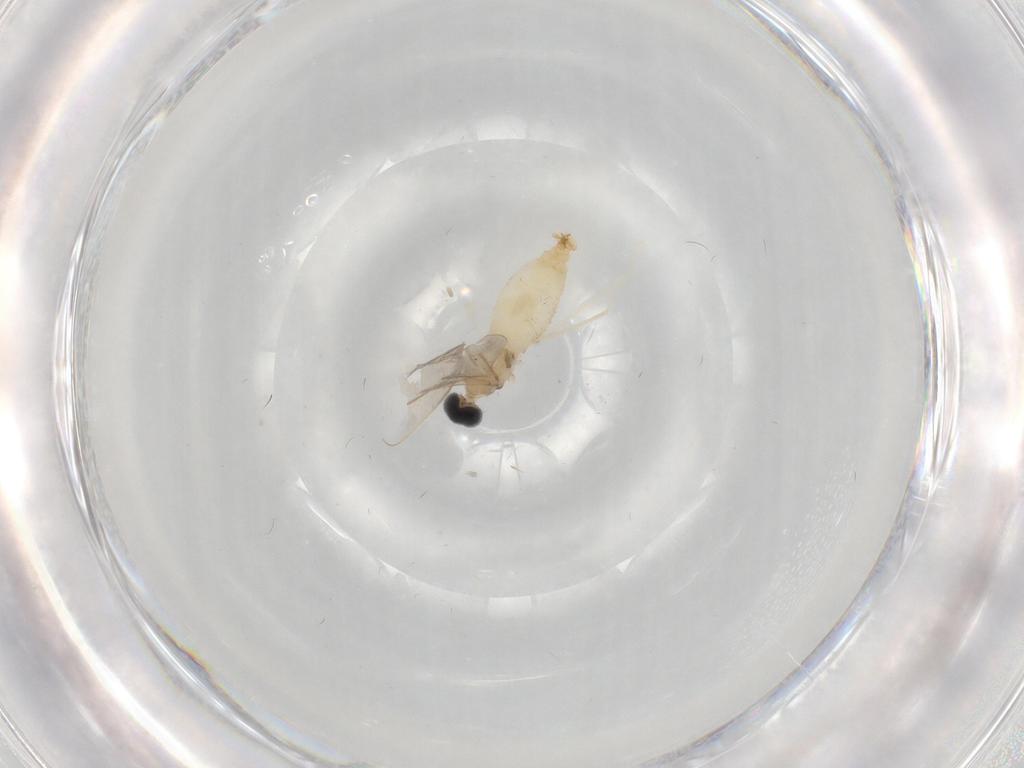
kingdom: Animalia
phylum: Arthropoda
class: Insecta
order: Diptera
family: Cecidomyiidae
